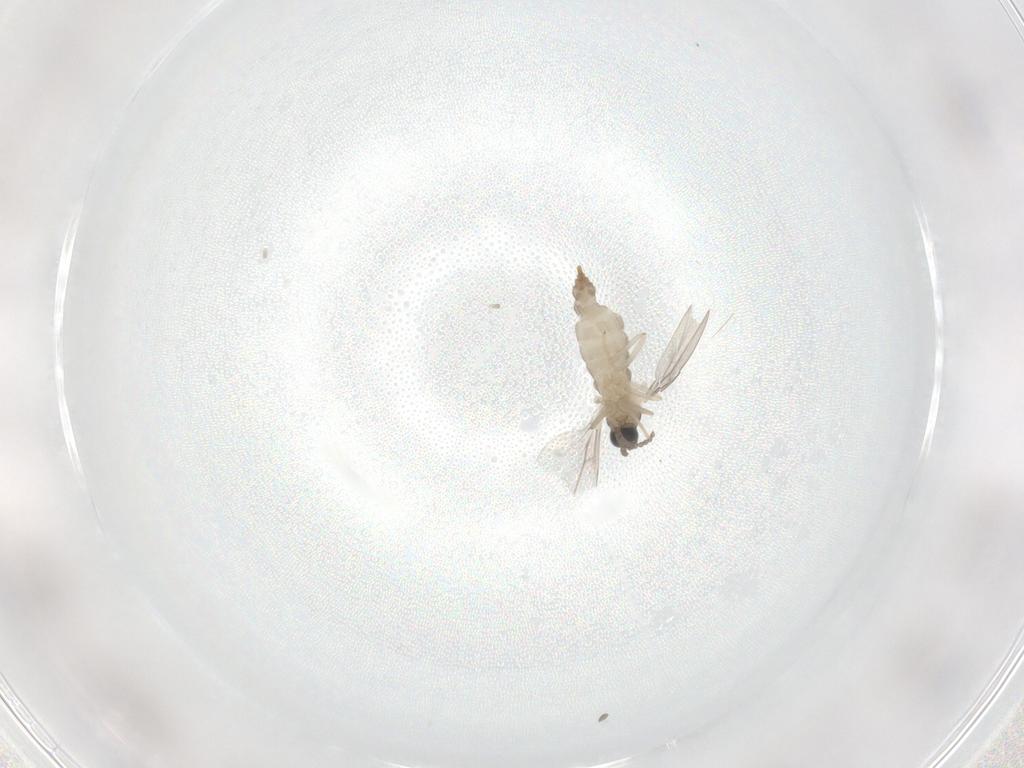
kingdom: Animalia
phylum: Arthropoda
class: Insecta
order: Diptera
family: Cecidomyiidae
